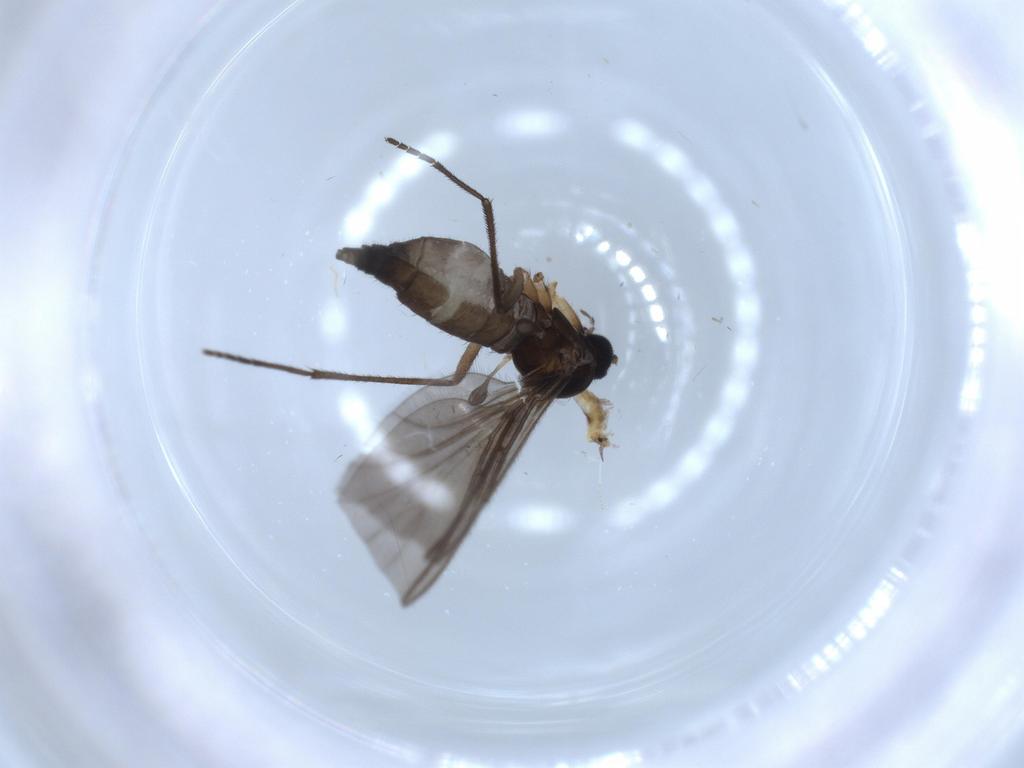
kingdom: Animalia
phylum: Arthropoda
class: Insecta
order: Diptera
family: Sciaridae
